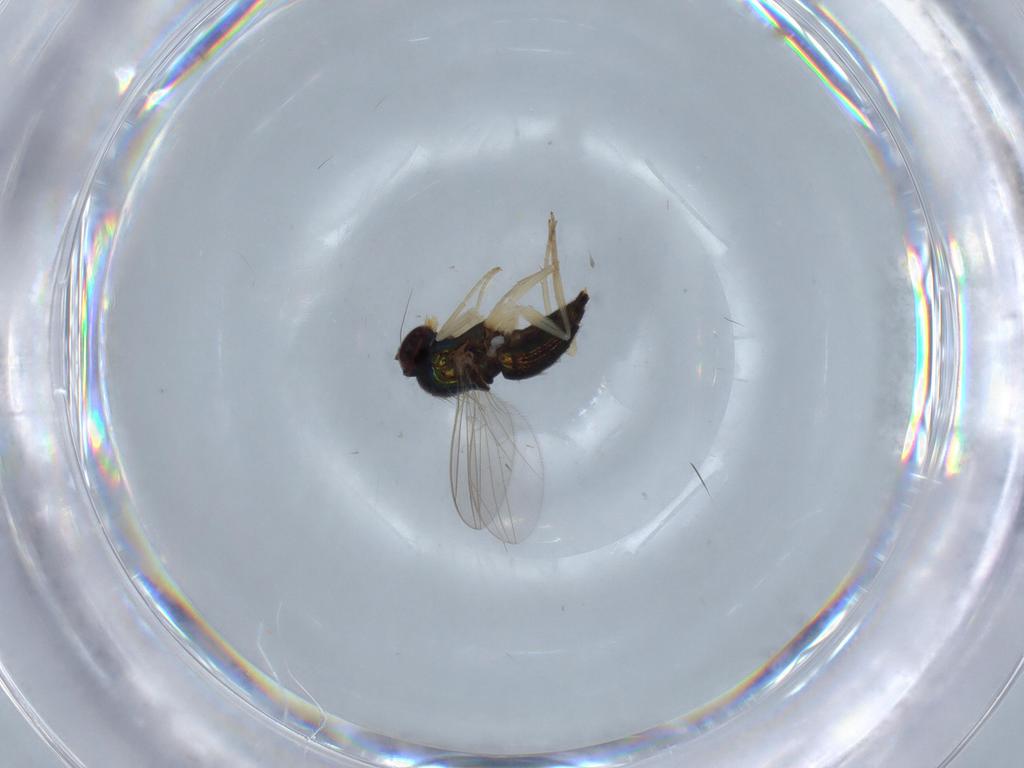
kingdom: Animalia
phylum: Arthropoda
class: Insecta
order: Diptera
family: Dolichopodidae
